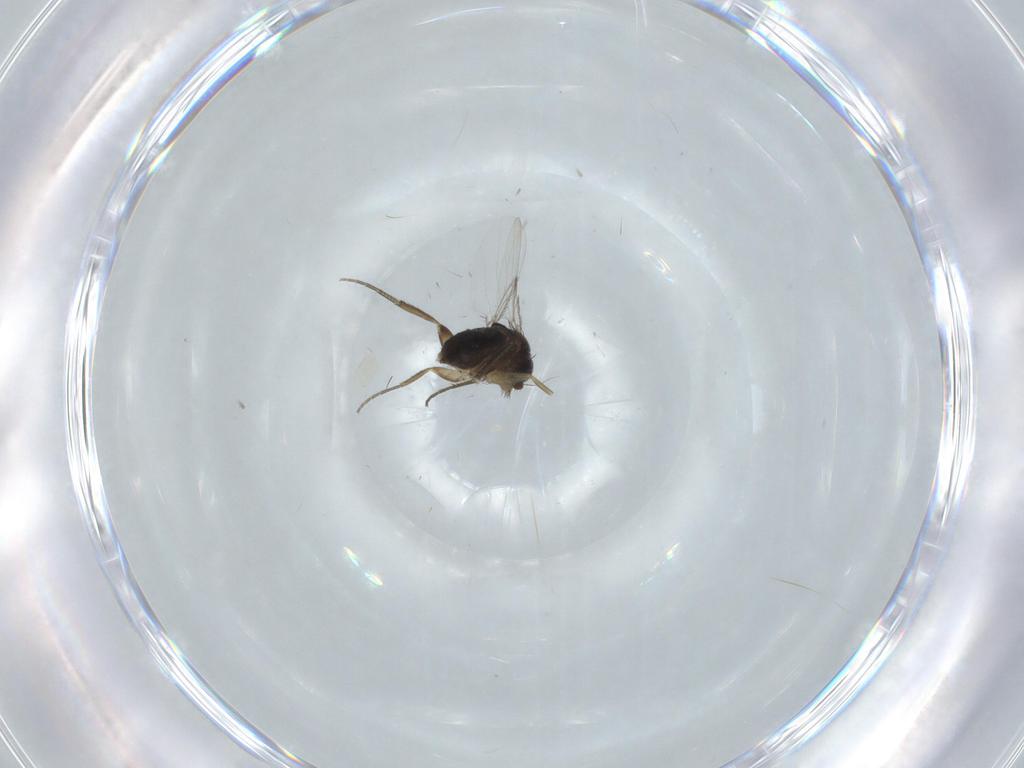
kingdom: Animalia
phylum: Arthropoda
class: Insecta
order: Diptera
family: Phoridae
